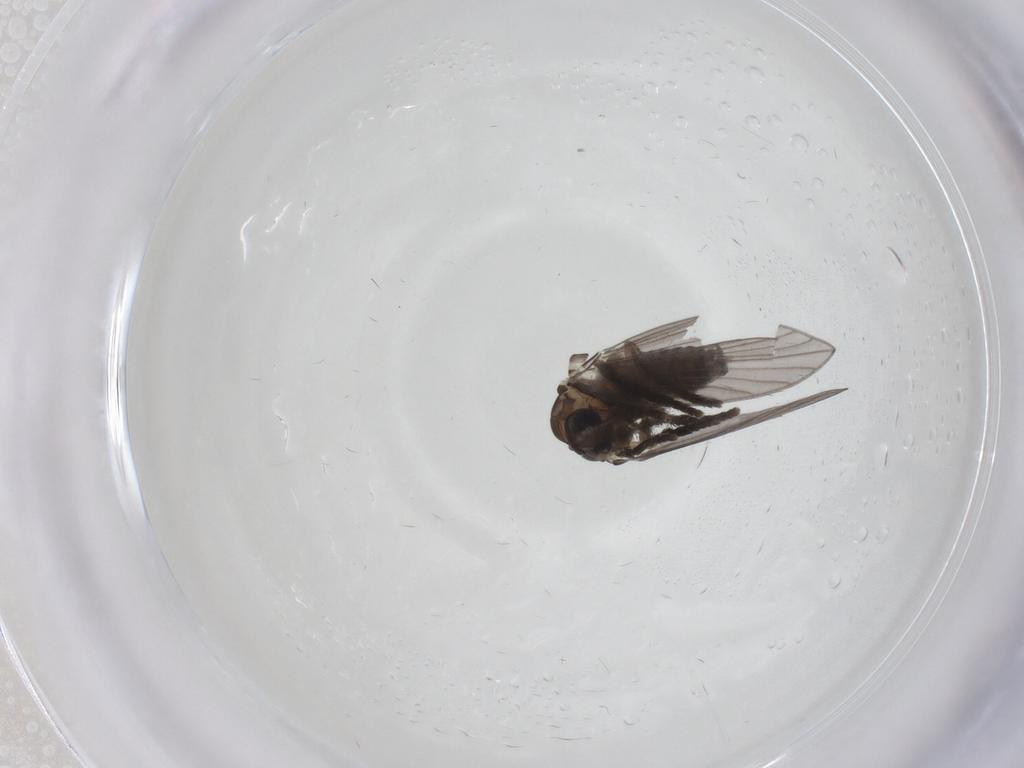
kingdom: Animalia
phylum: Arthropoda
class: Insecta
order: Diptera
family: Psychodidae
